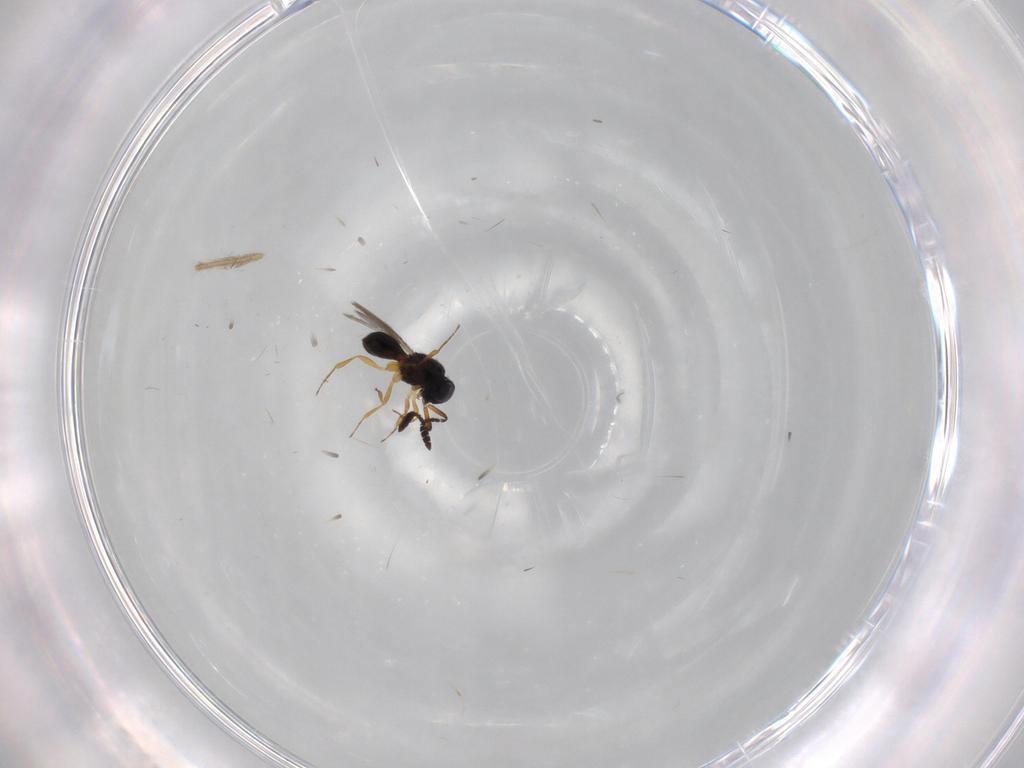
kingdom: Animalia
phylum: Arthropoda
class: Insecta
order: Hymenoptera
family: Scelionidae
